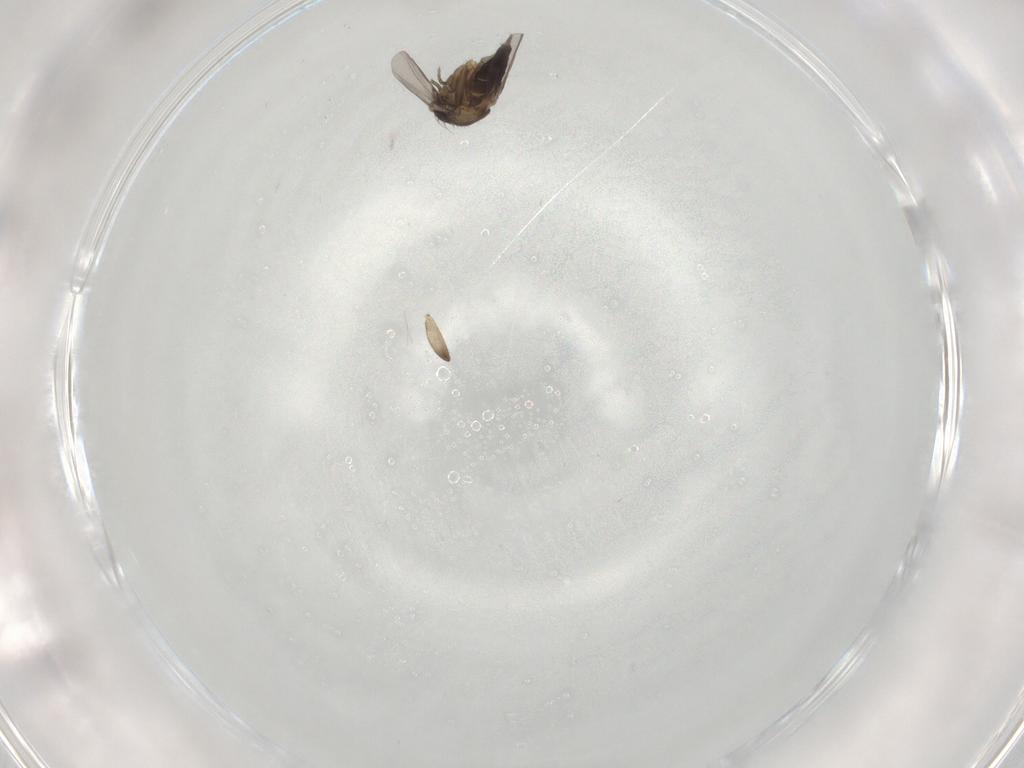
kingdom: Animalia
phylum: Arthropoda
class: Insecta
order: Diptera
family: Phoridae
